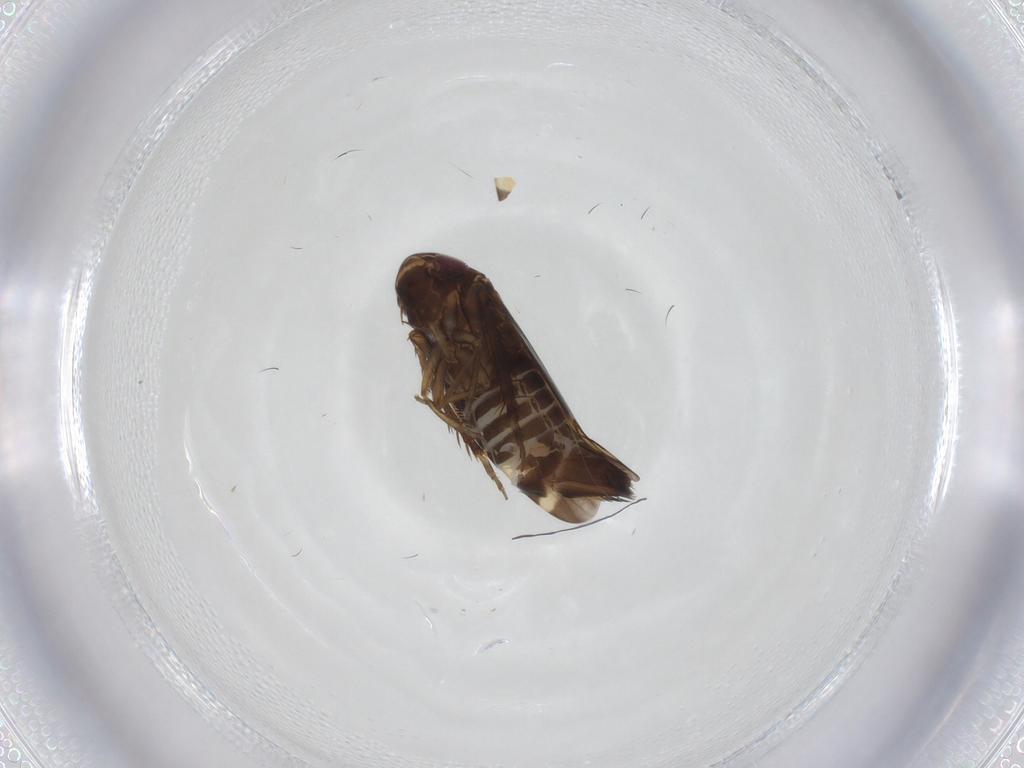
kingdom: Animalia
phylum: Arthropoda
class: Insecta
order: Hemiptera
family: Cicadellidae
